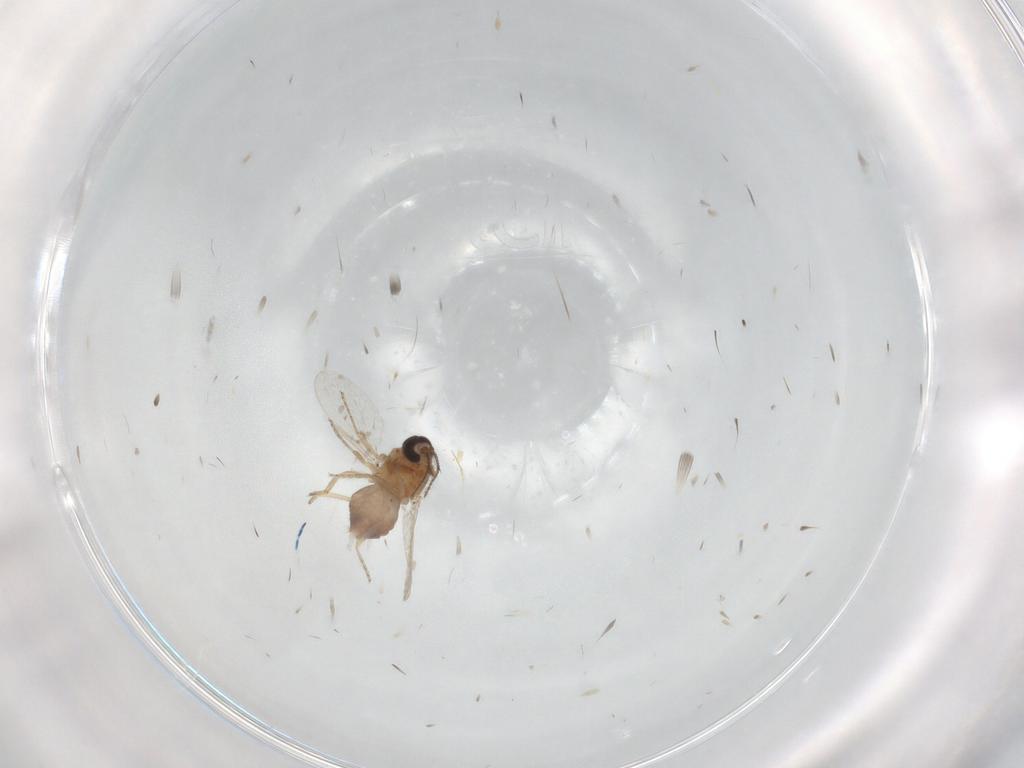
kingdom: Animalia
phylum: Arthropoda
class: Insecta
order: Diptera
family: Ceratopogonidae
